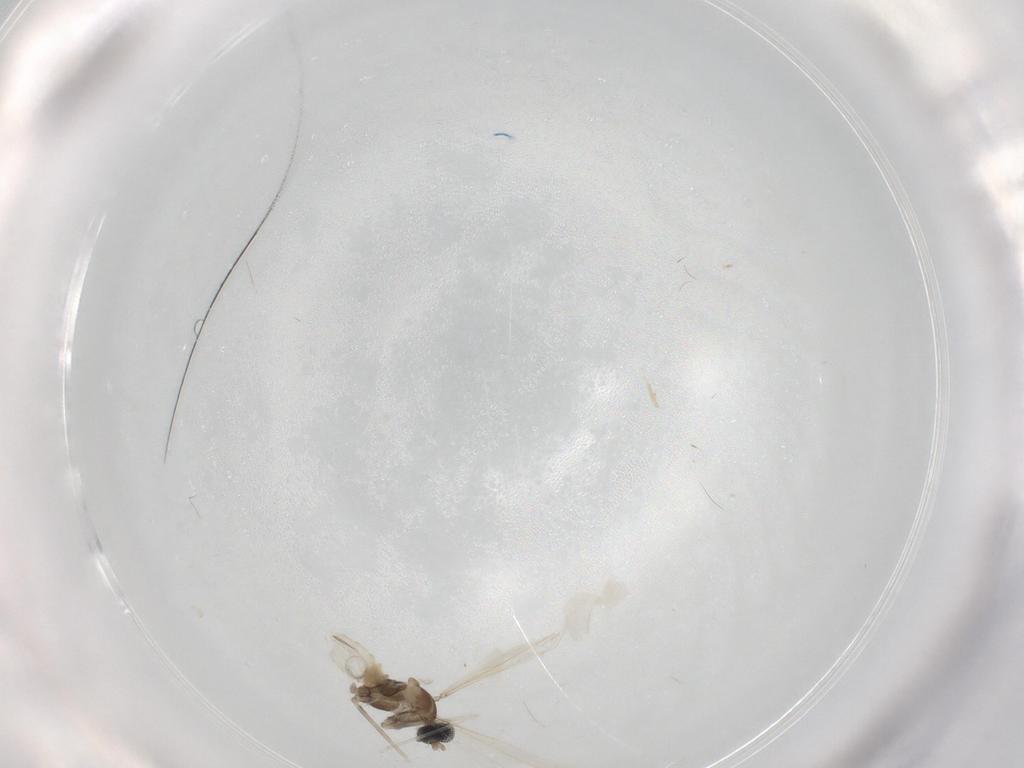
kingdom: Animalia
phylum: Arthropoda
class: Insecta
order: Diptera
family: Cecidomyiidae
